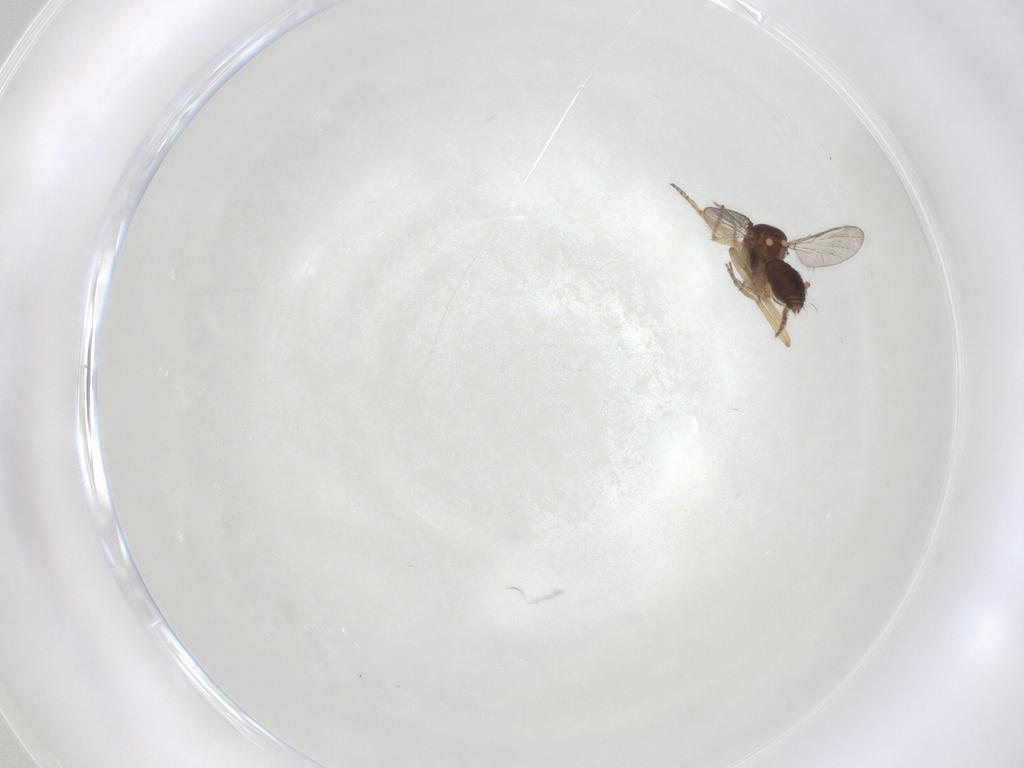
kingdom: Animalia
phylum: Arthropoda
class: Insecta
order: Diptera
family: Ceratopogonidae
